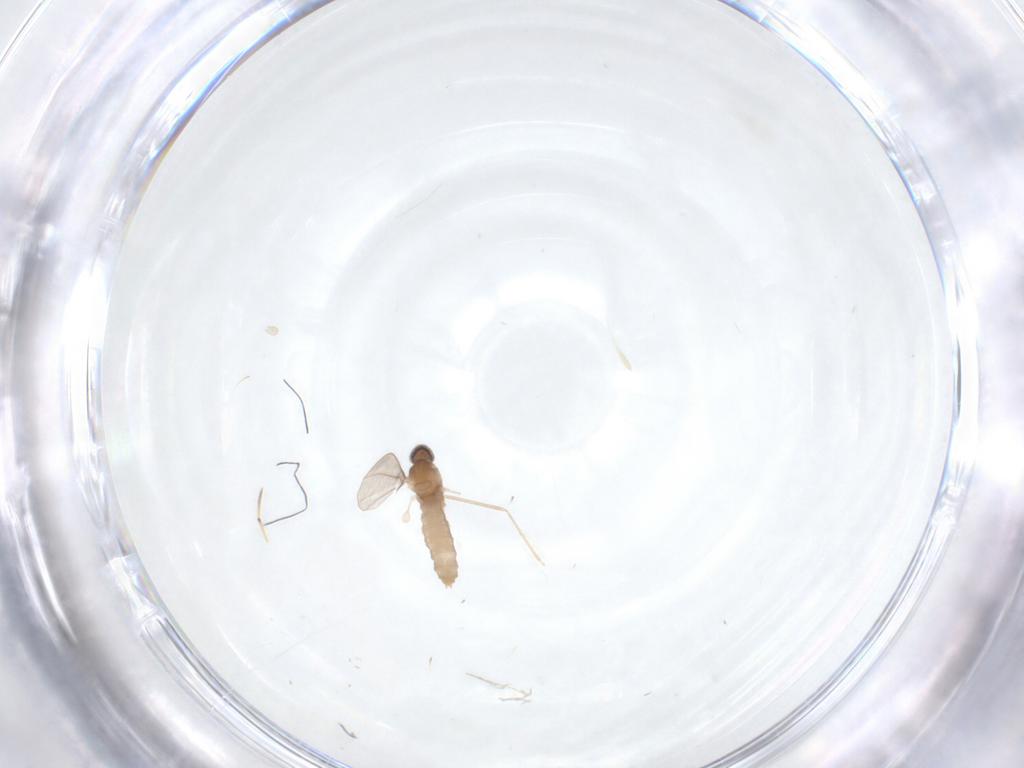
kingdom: Animalia
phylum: Arthropoda
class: Insecta
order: Diptera
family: Cecidomyiidae
